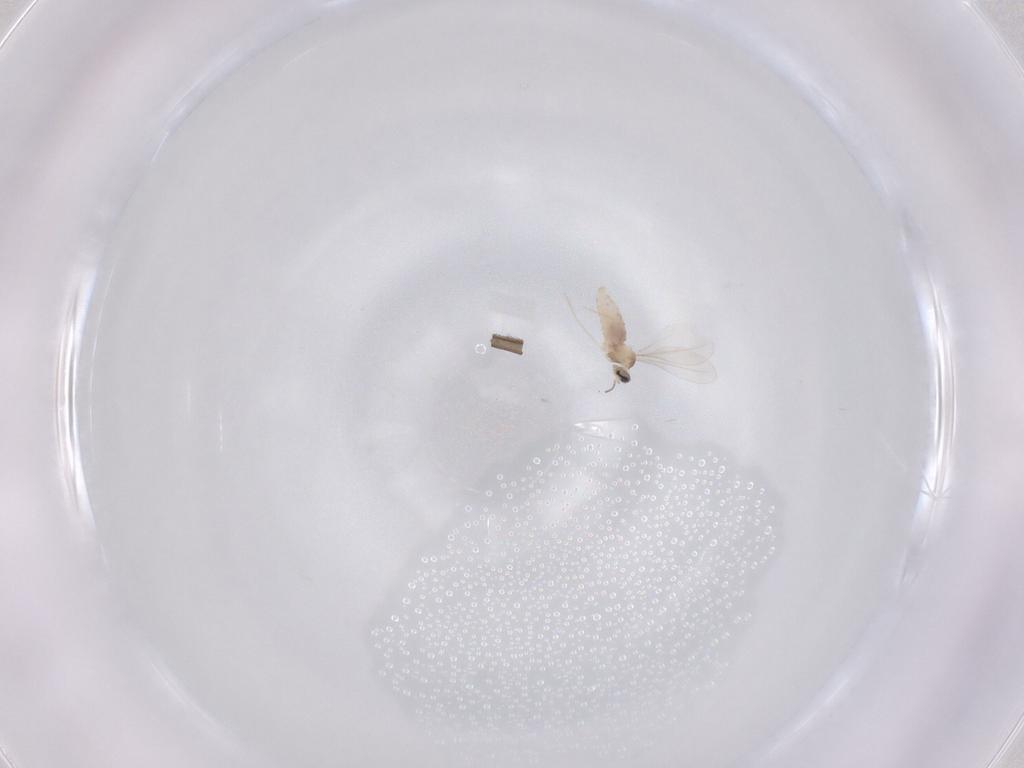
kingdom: Animalia
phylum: Arthropoda
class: Insecta
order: Diptera
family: Sciaridae
